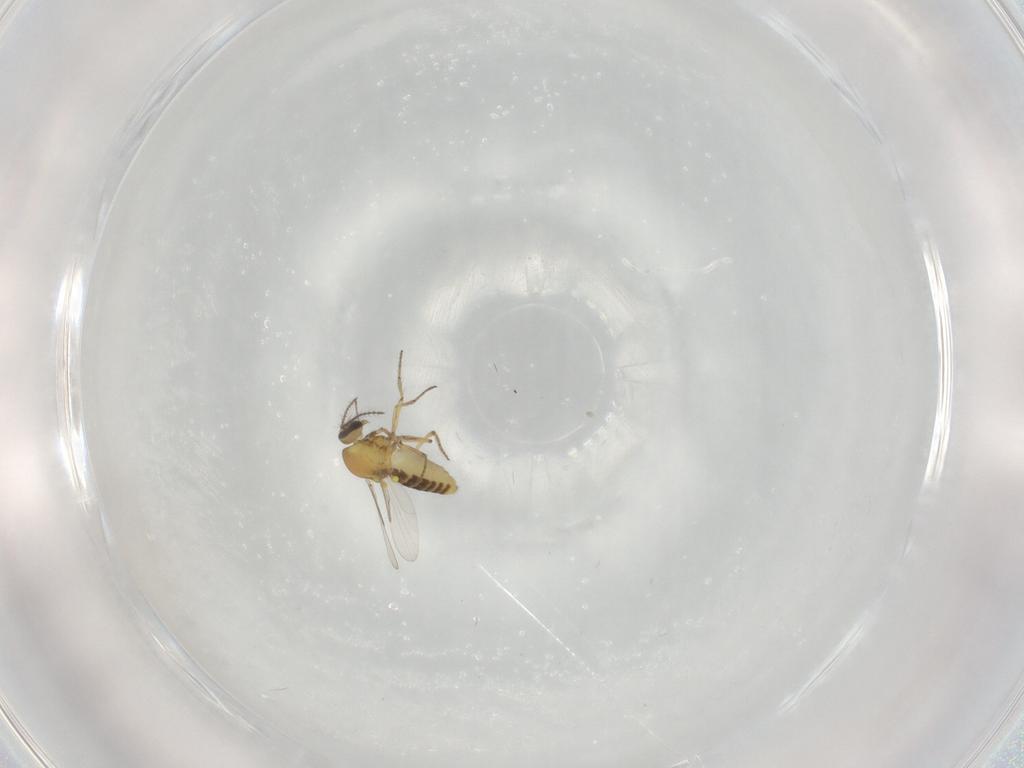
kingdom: Animalia
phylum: Arthropoda
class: Insecta
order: Diptera
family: Ceratopogonidae
